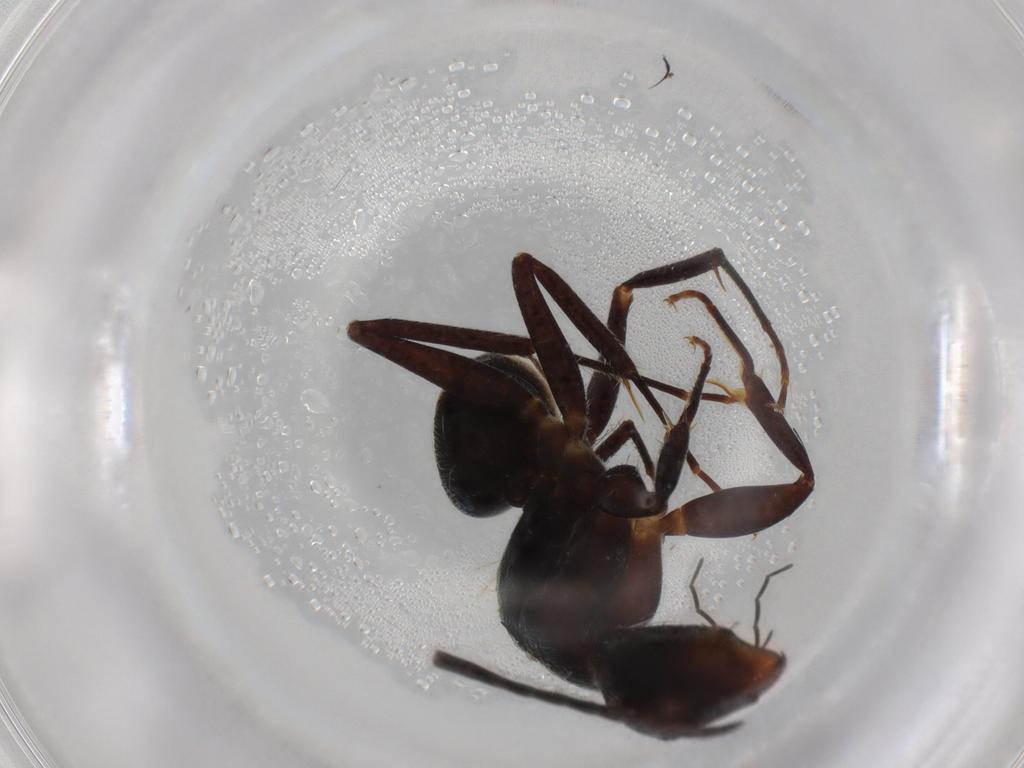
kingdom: Animalia
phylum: Arthropoda
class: Insecta
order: Hymenoptera
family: Formicidae
